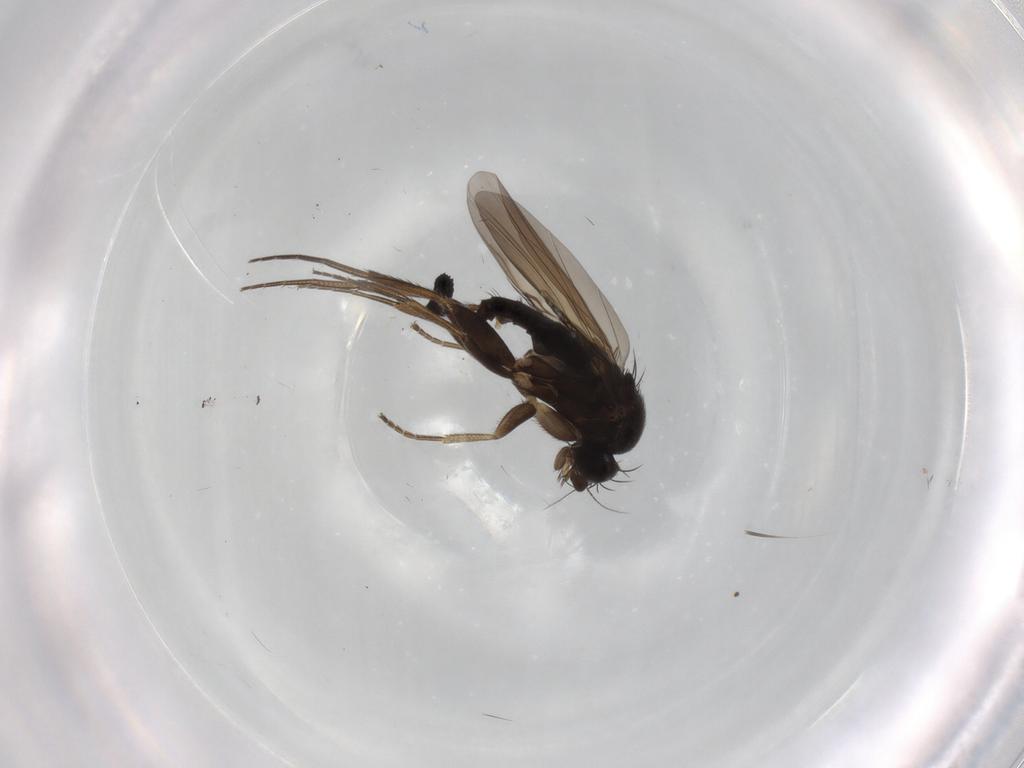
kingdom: Animalia
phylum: Arthropoda
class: Insecta
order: Diptera
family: Phoridae
